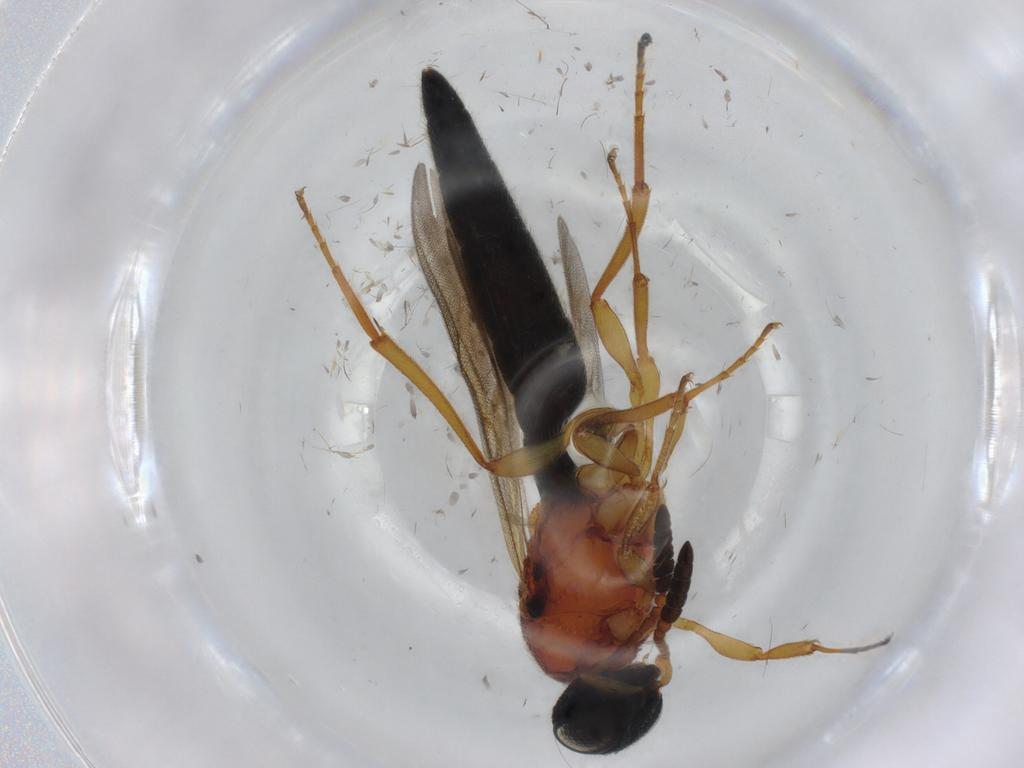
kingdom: Animalia
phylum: Arthropoda
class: Insecta
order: Hymenoptera
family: Scelionidae
